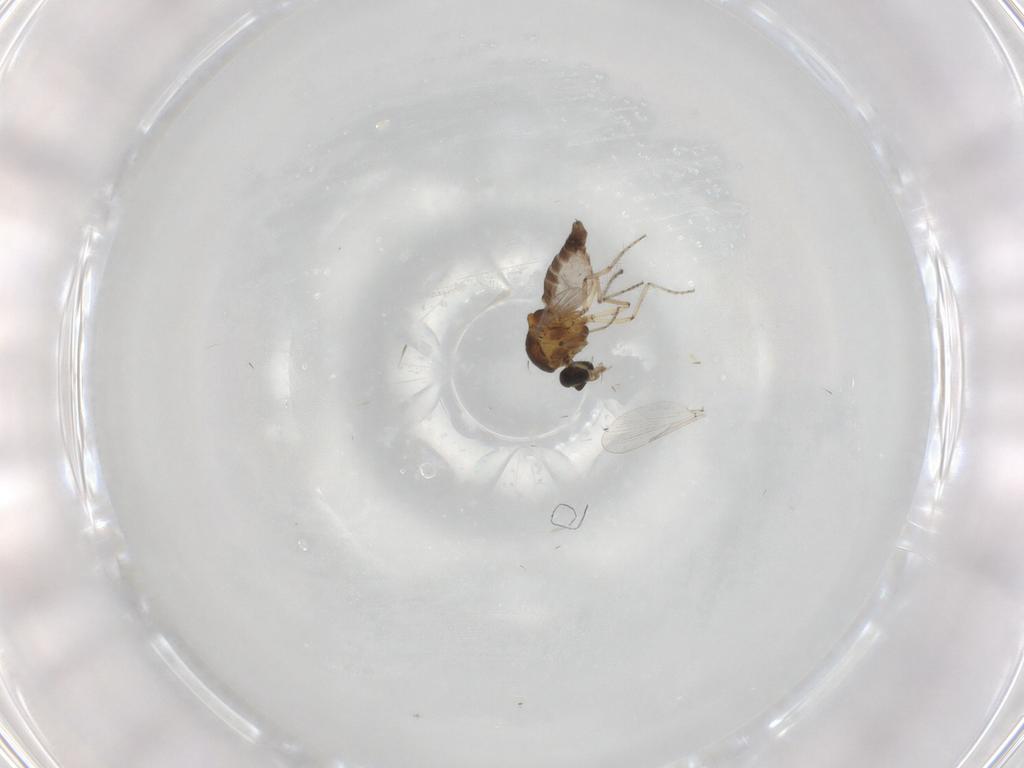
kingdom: Animalia
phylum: Arthropoda
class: Insecta
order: Diptera
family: Ceratopogonidae
